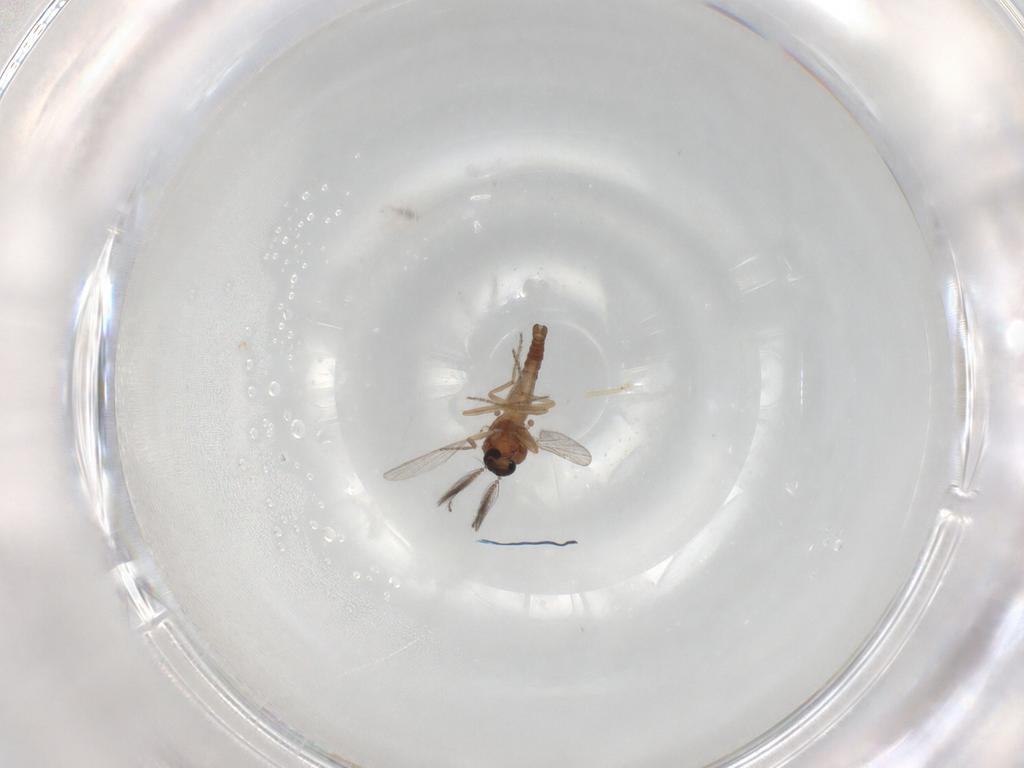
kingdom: Animalia
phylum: Arthropoda
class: Insecta
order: Diptera
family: Ceratopogonidae
